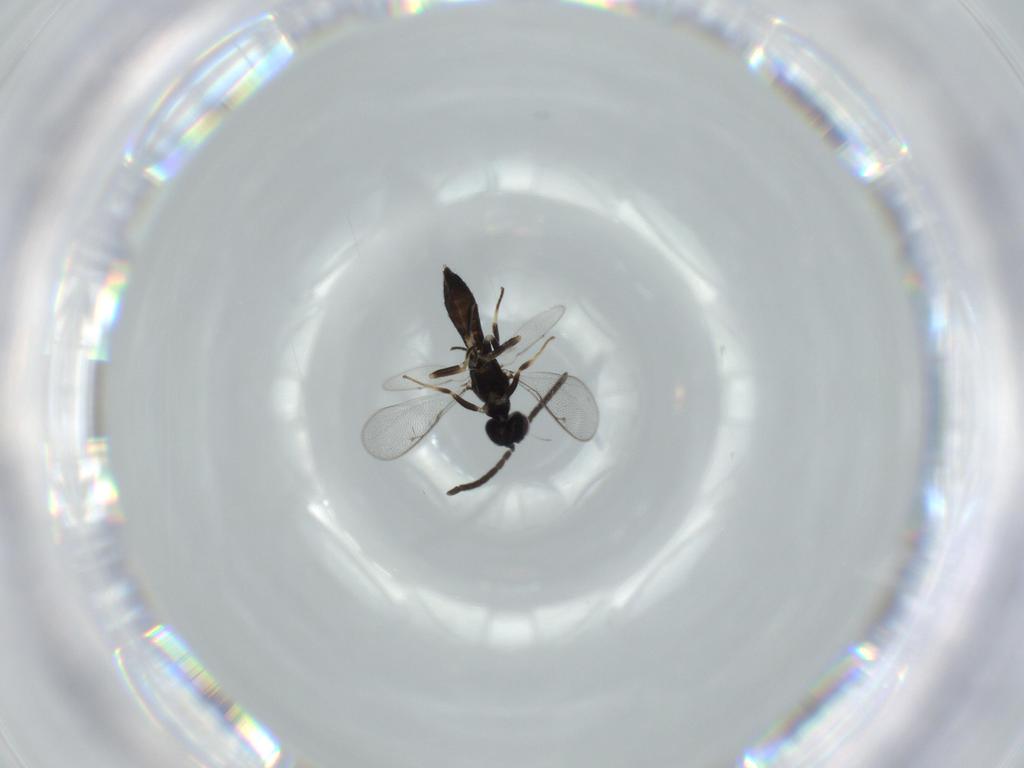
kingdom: Animalia
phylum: Arthropoda
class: Insecta
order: Hymenoptera
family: Eupelmidae
